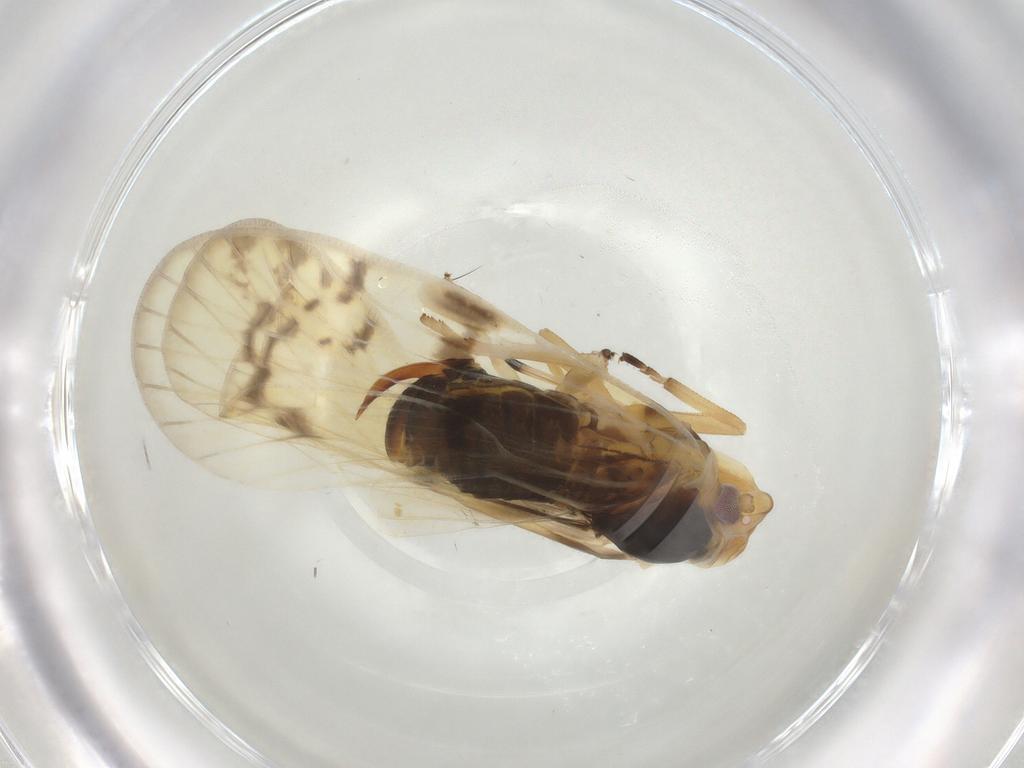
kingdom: Animalia
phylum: Arthropoda
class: Insecta
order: Hemiptera
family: Cixiidae
